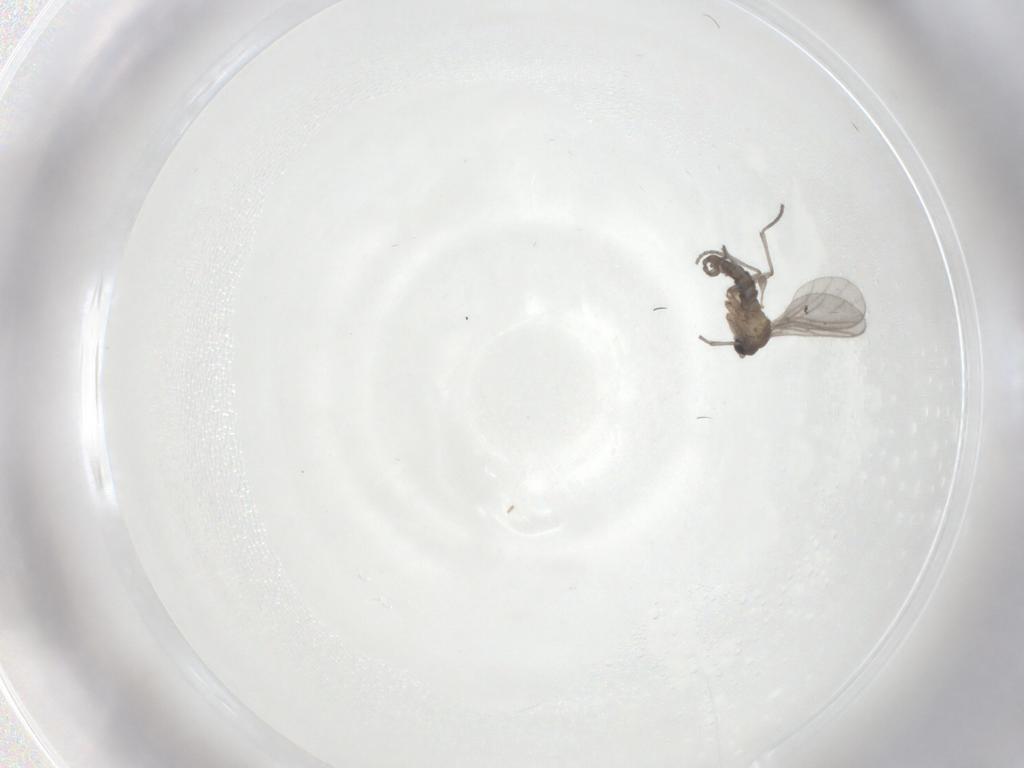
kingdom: Animalia
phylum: Arthropoda
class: Insecta
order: Diptera
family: Sciaridae
